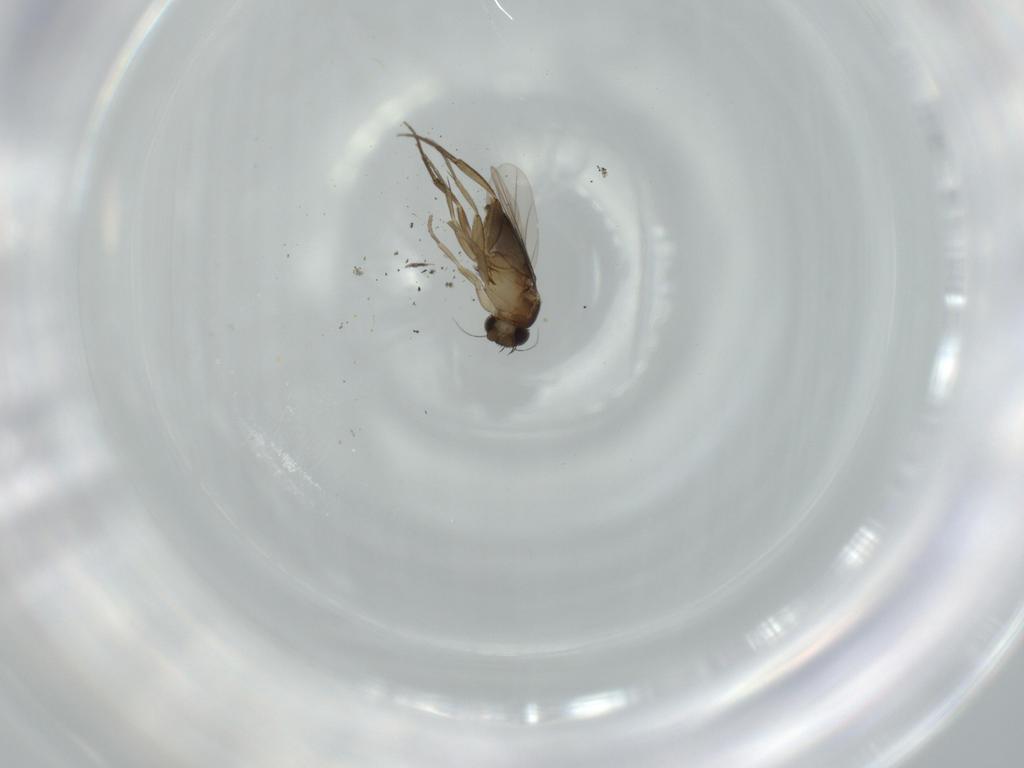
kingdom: Animalia
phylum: Arthropoda
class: Insecta
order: Diptera
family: Phoridae
